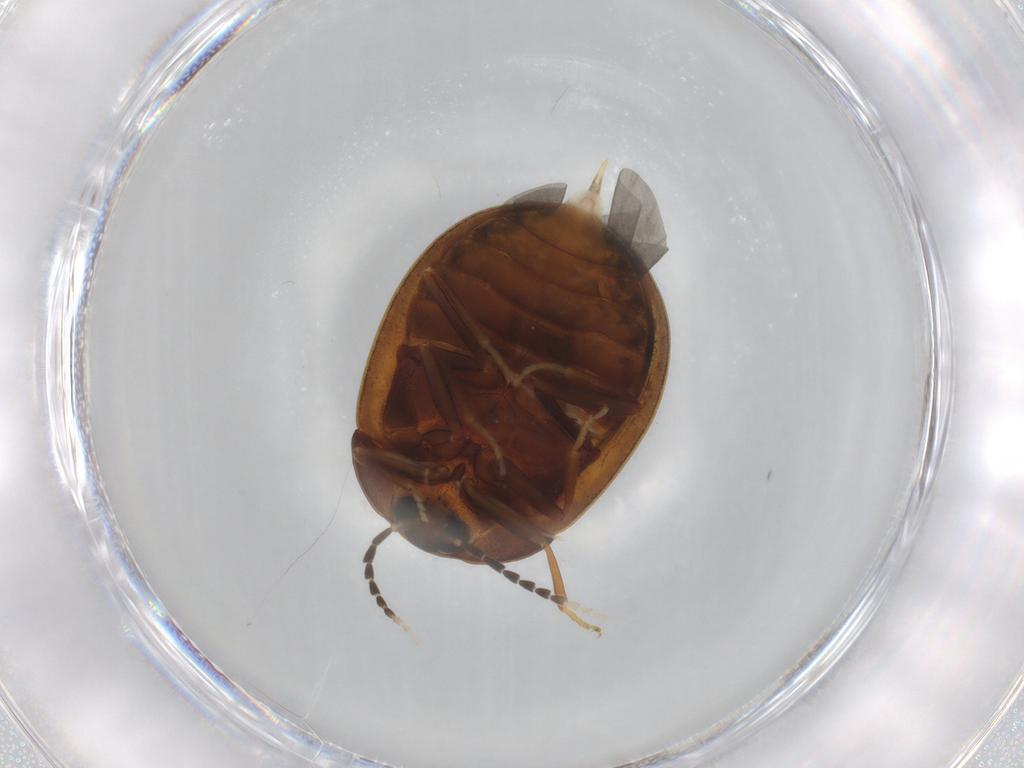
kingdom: Animalia
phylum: Arthropoda
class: Insecta
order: Coleoptera
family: Psephenidae
